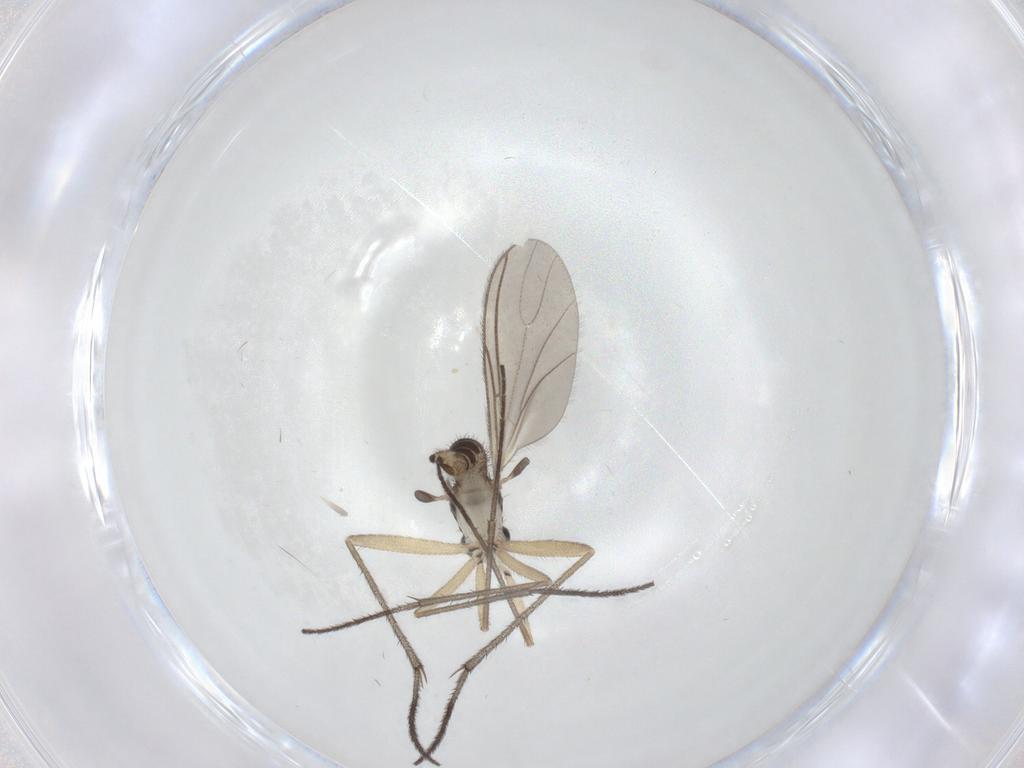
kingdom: Animalia
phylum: Arthropoda
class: Insecta
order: Diptera
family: Sciaridae
